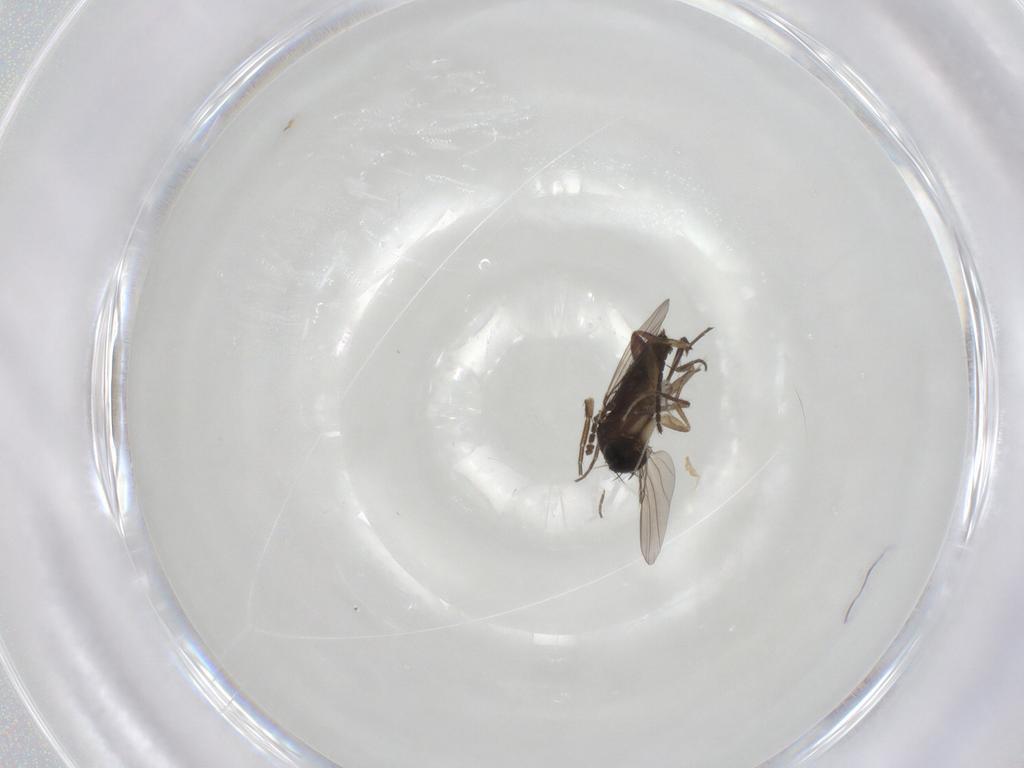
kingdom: Animalia
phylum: Arthropoda
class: Insecta
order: Diptera
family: Phoridae
